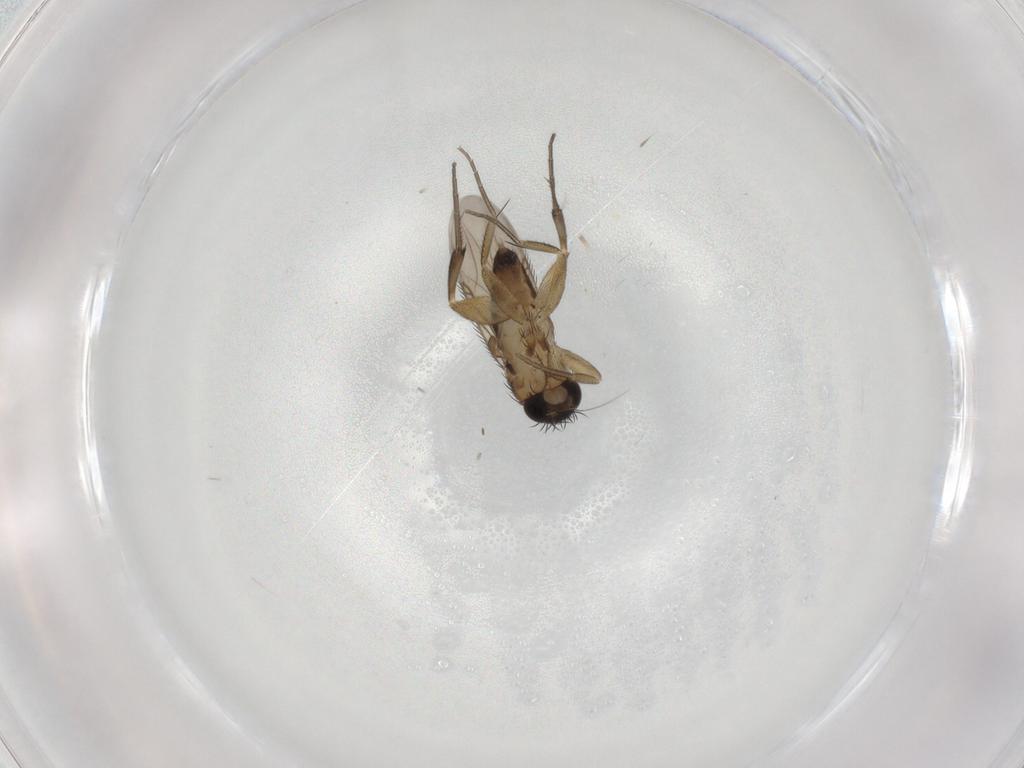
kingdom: Animalia
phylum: Arthropoda
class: Insecta
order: Diptera
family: Phoridae
